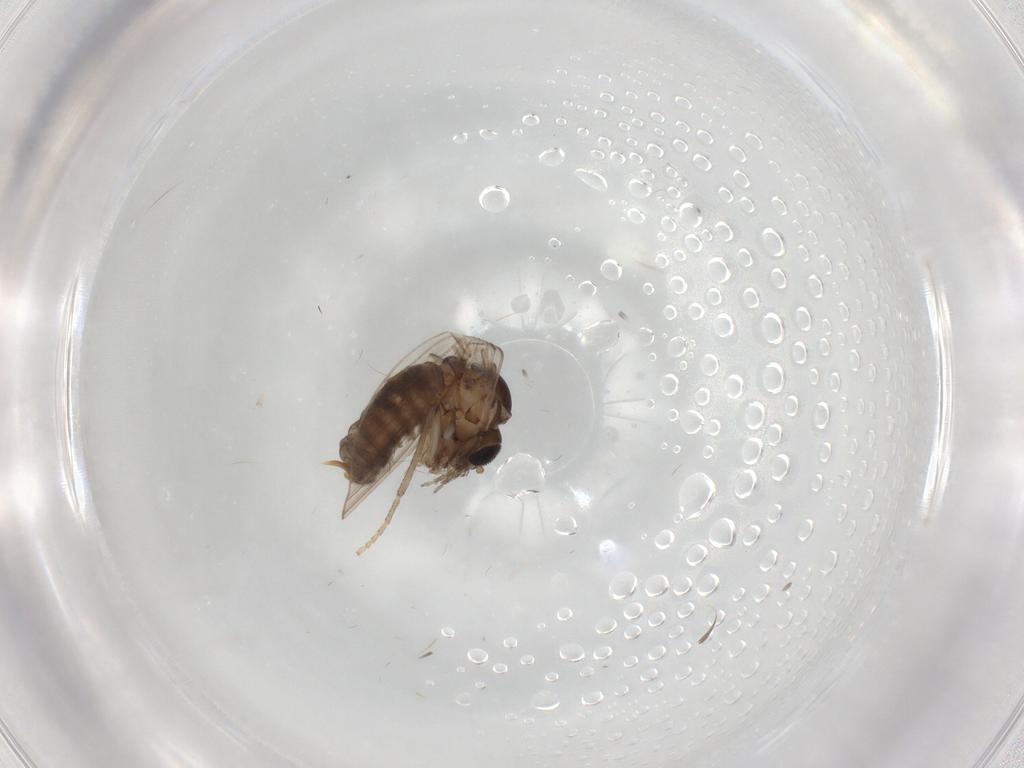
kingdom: Animalia
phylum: Arthropoda
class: Insecta
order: Diptera
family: Psychodidae
